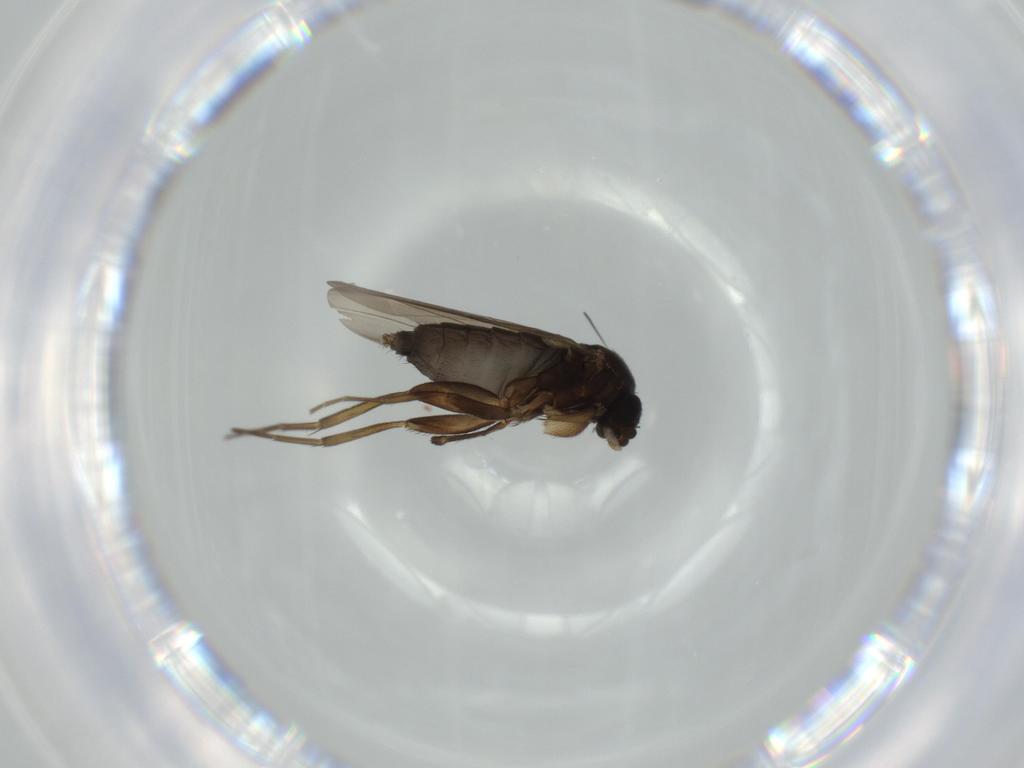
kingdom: Animalia
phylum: Arthropoda
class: Insecta
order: Diptera
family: Phoridae
